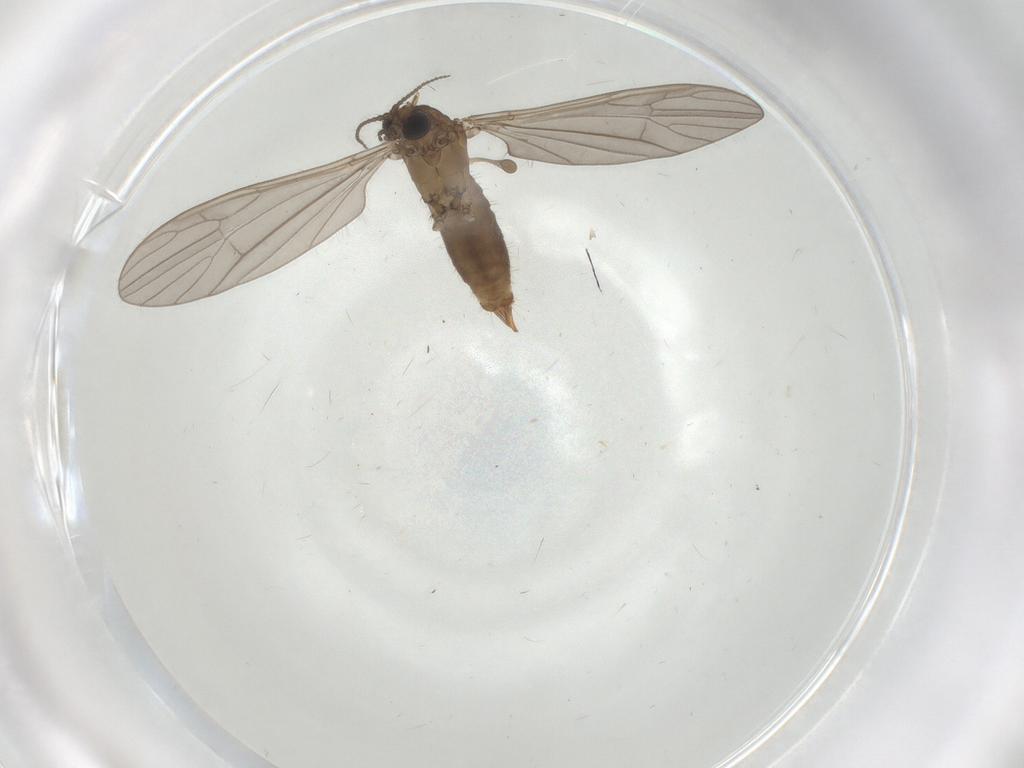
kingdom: Animalia
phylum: Arthropoda
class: Insecta
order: Diptera
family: Limoniidae
